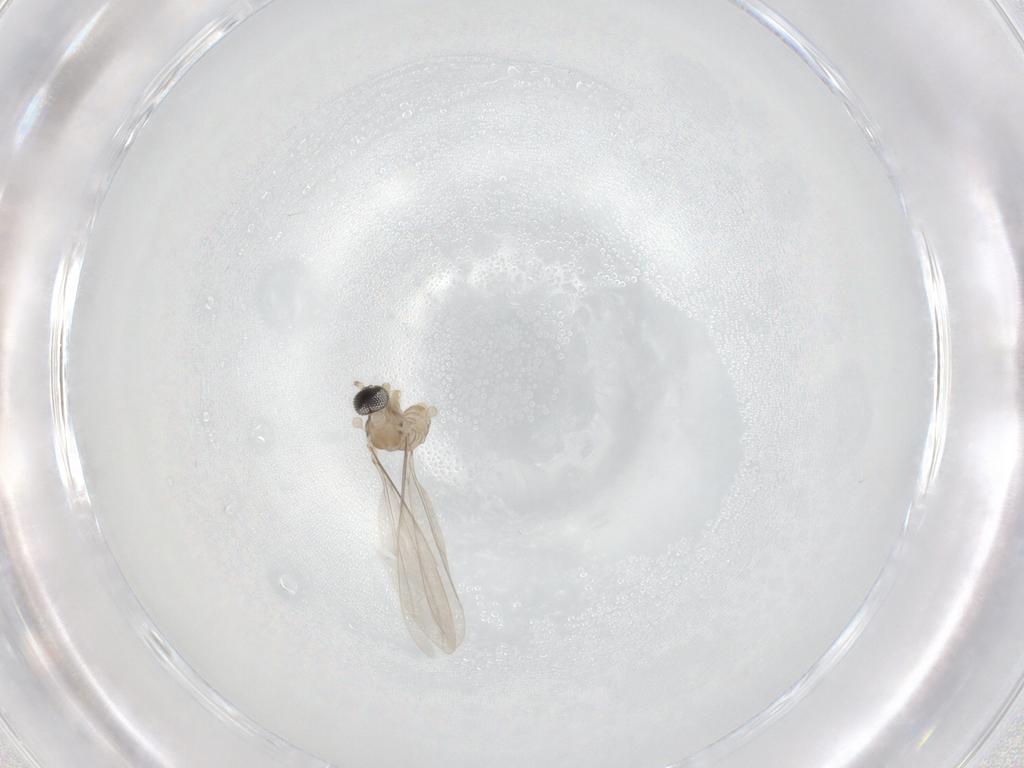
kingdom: Animalia
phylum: Arthropoda
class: Insecta
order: Diptera
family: Cecidomyiidae
